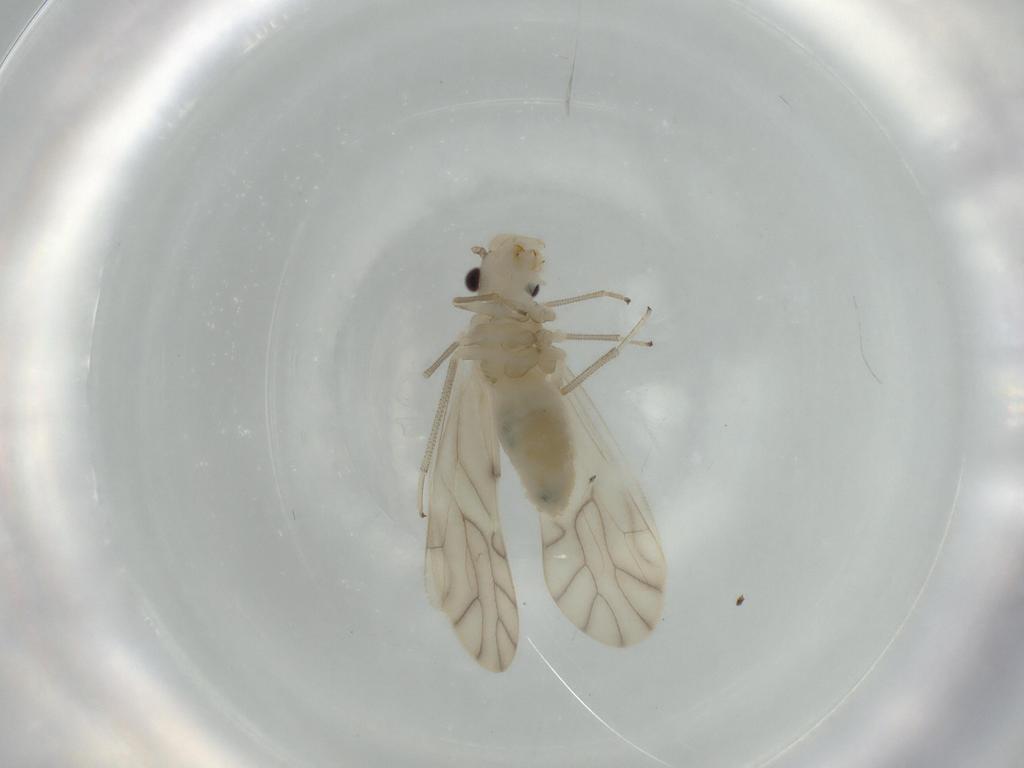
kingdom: Animalia
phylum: Arthropoda
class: Insecta
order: Psocodea
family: Caeciliusidae
